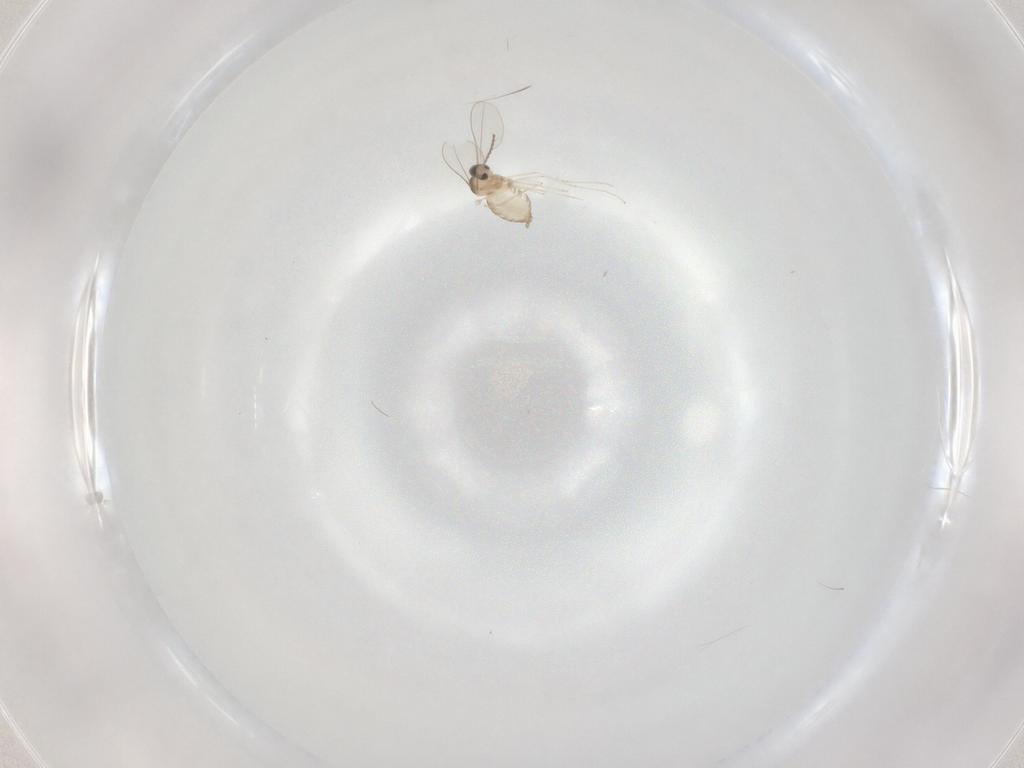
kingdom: Animalia
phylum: Arthropoda
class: Insecta
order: Diptera
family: Cecidomyiidae
